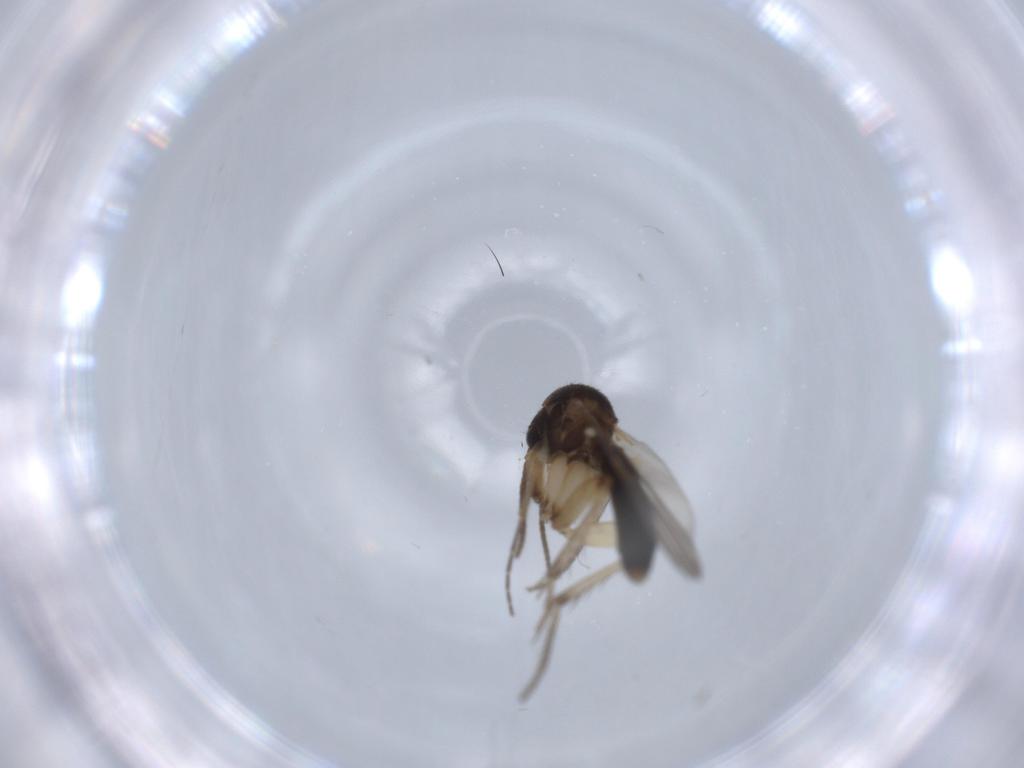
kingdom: Animalia
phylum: Arthropoda
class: Insecta
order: Diptera
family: Mycetophilidae
